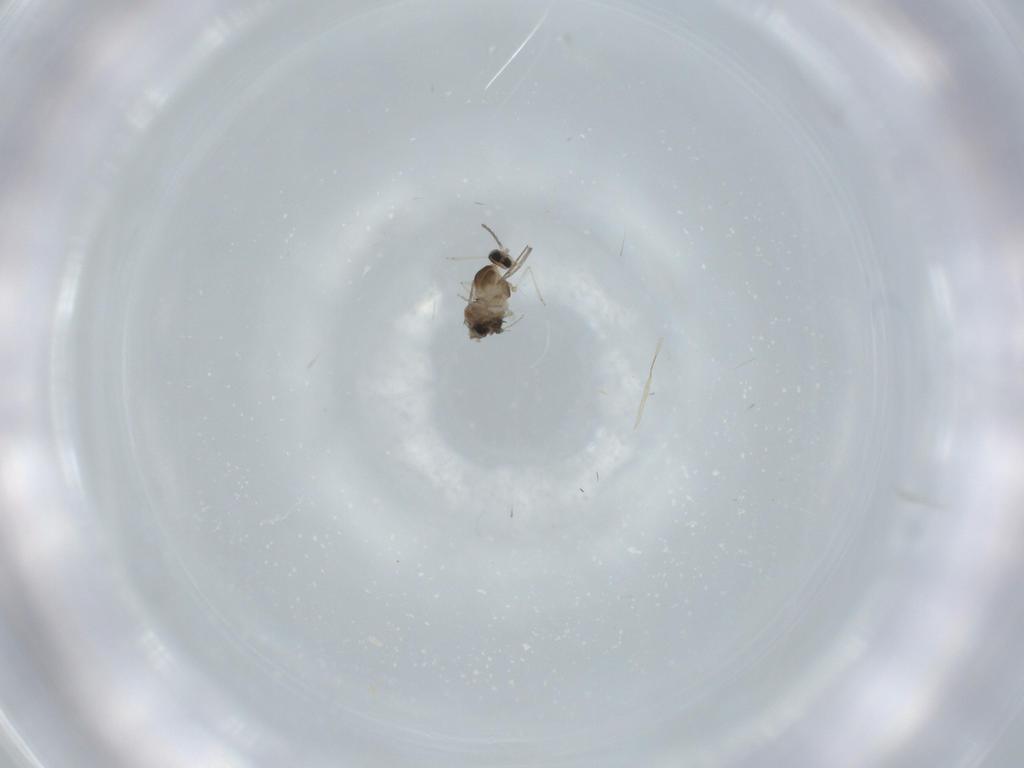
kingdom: Animalia
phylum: Arthropoda
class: Insecta
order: Diptera
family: Cecidomyiidae
